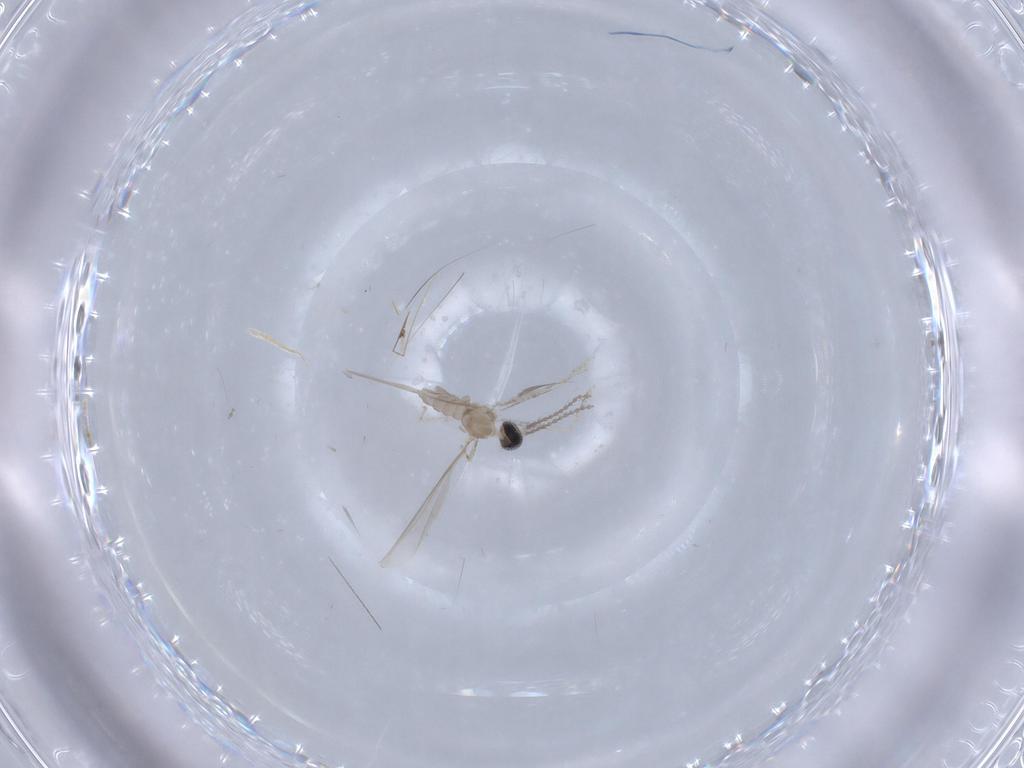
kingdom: Animalia
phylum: Arthropoda
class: Insecta
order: Diptera
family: Cecidomyiidae
